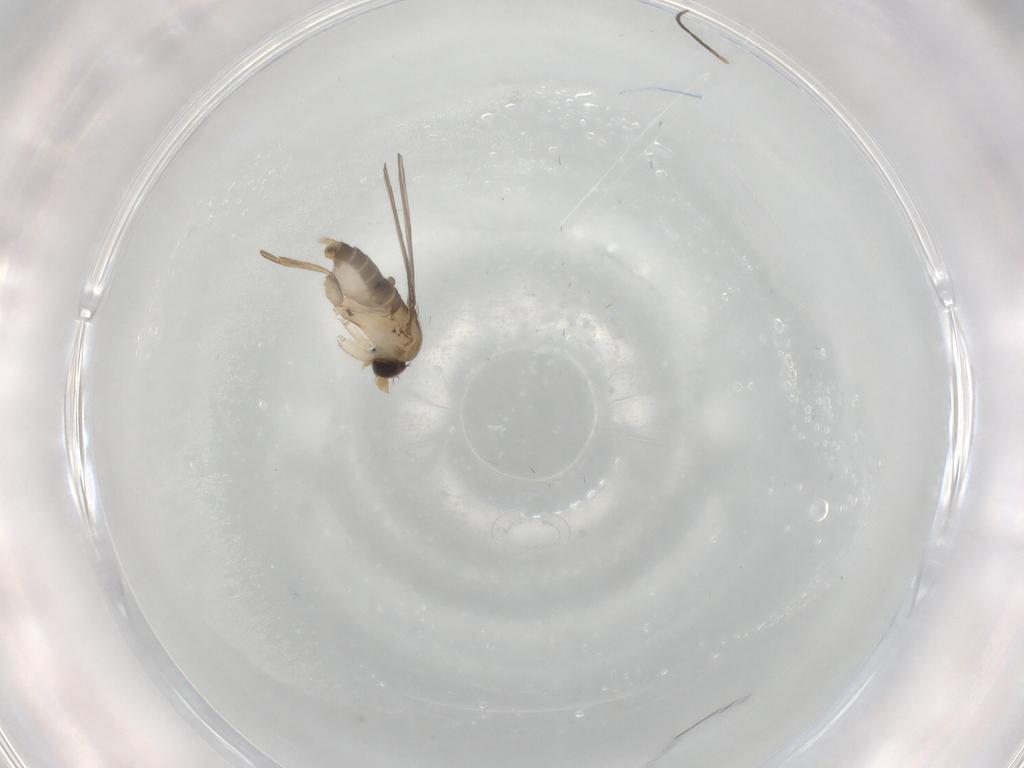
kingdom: Animalia
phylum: Arthropoda
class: Insecta
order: Diptera
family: Phoridae
